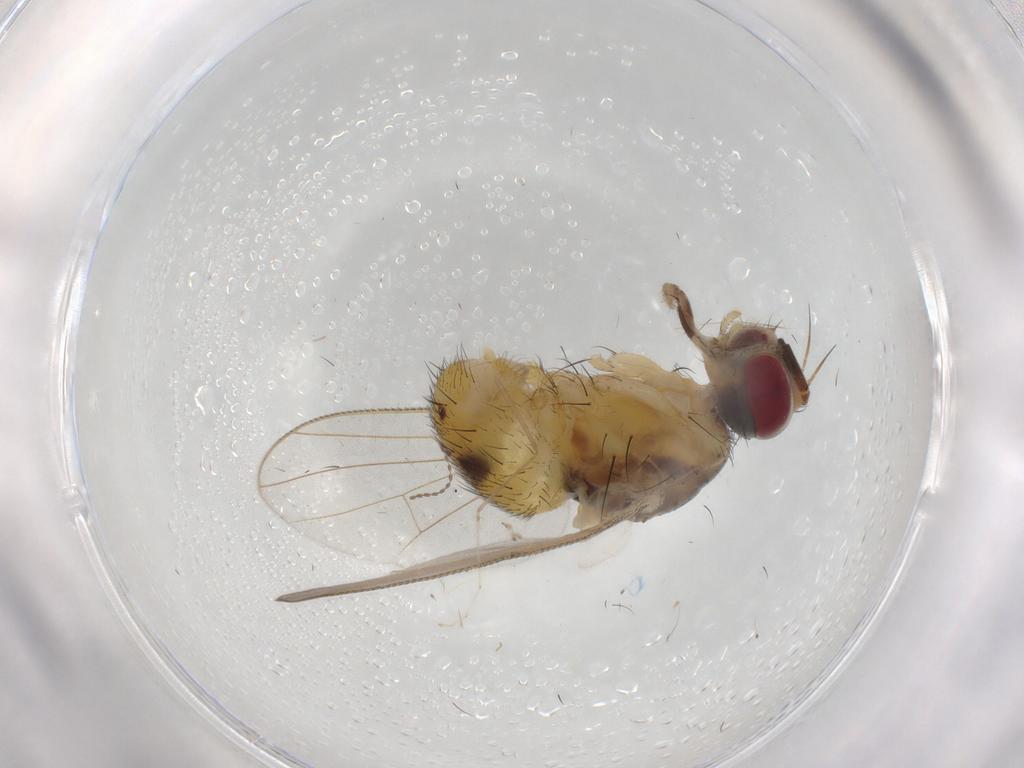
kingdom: Animalia
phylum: Arthropoda
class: Insecta
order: Diptera
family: Muscidae
